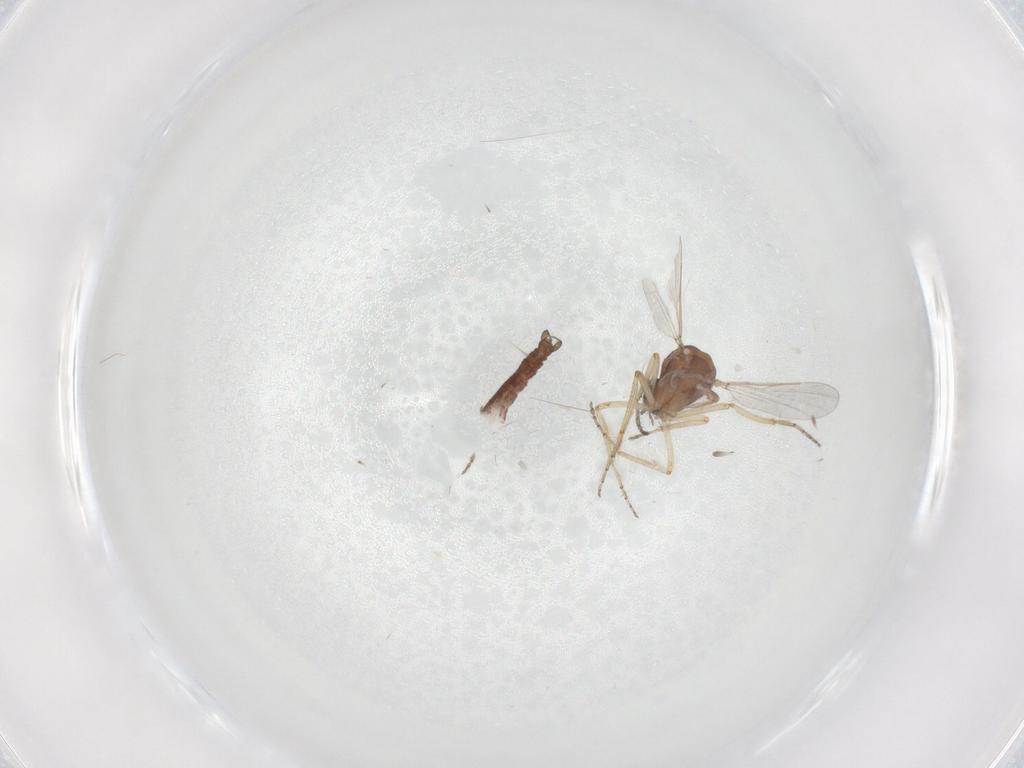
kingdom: Animalia
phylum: Arthropoda
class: Insecta
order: Diptera
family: Ceratopogonidae
